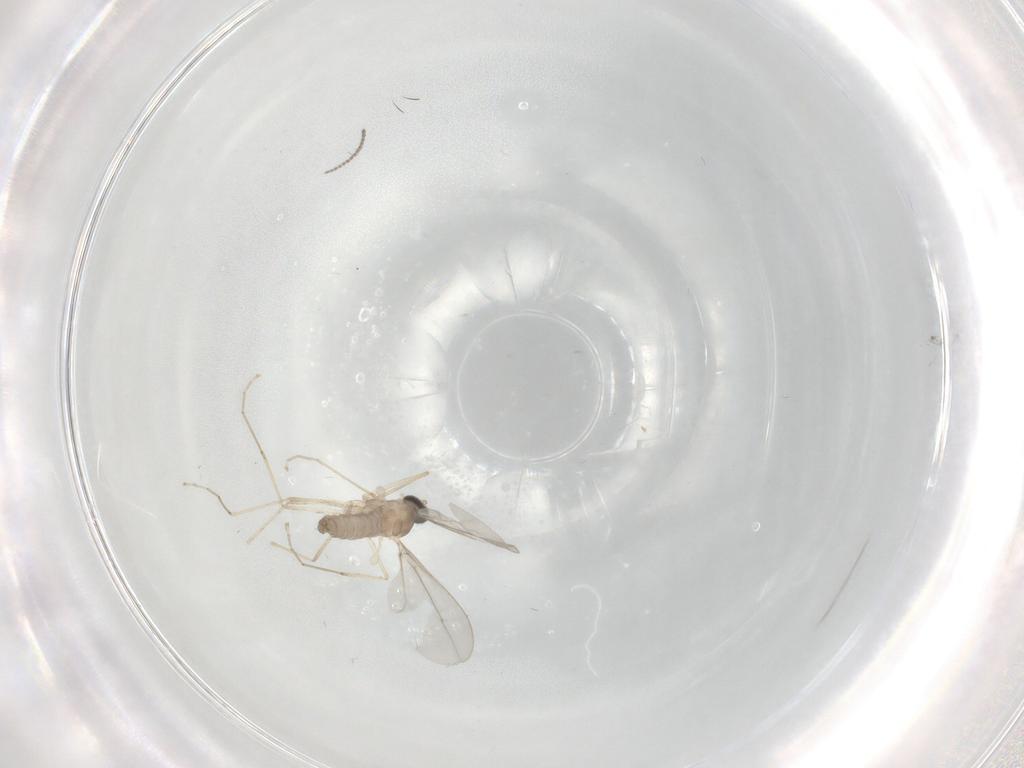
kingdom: Animalia
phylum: Arthropoda
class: Insecta
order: Diptera
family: Cecidomyiidae
